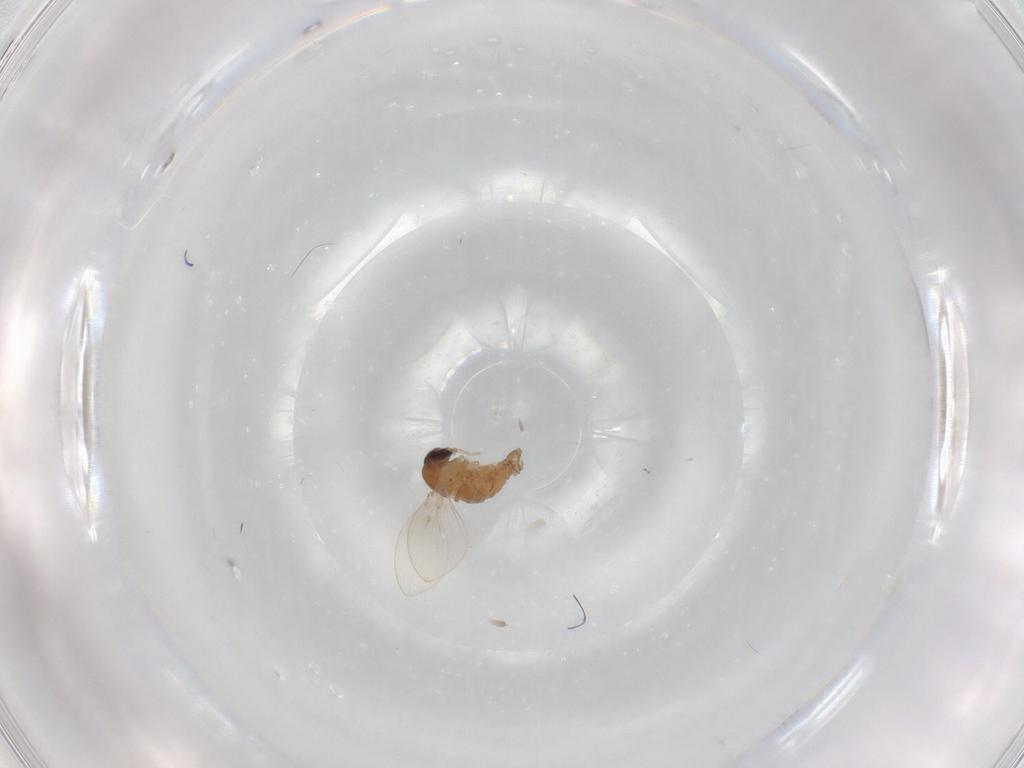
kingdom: Animalia
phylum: Arthropoda
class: Insecta
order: Diptera
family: Psychodidae
